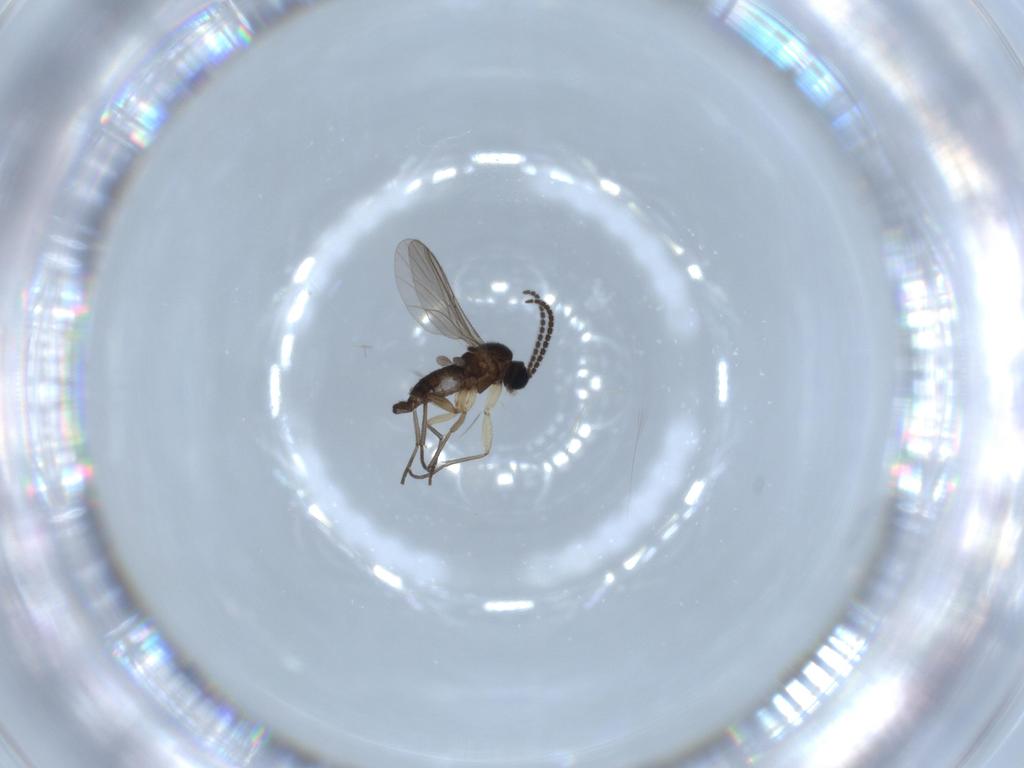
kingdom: Animalia
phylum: Arthropoda
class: Insecta
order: Diptera
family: Sciaridae
